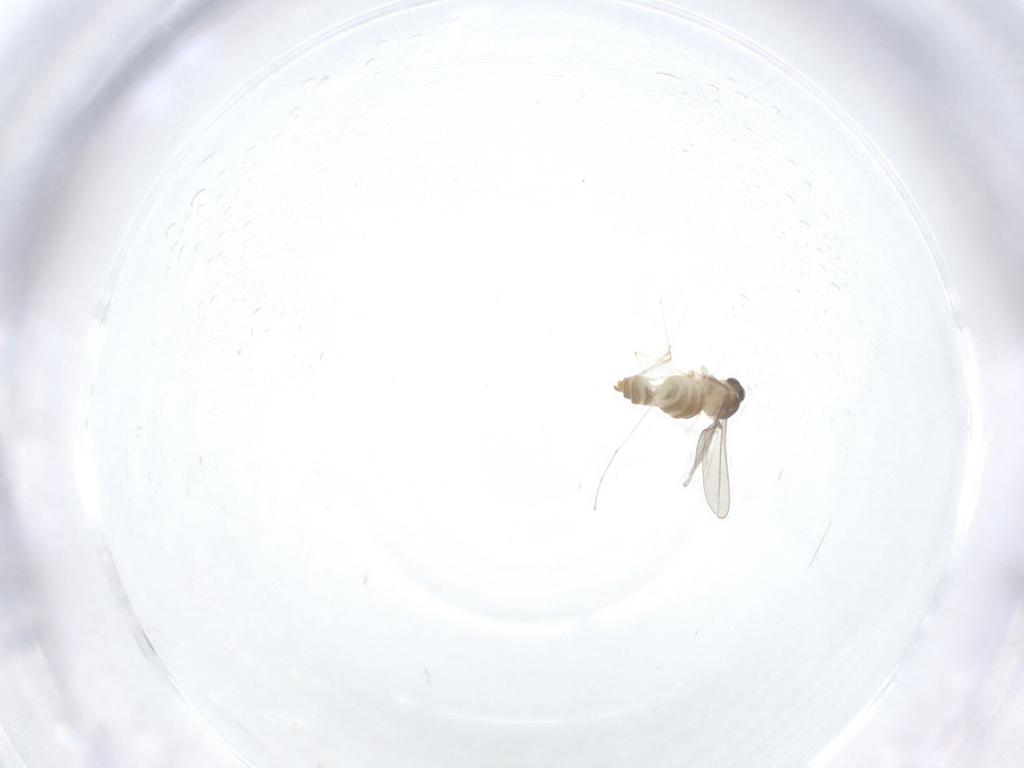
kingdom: Animalia
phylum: Arthropoda
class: Insecta
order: Diptera
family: Cecidomyiidae
